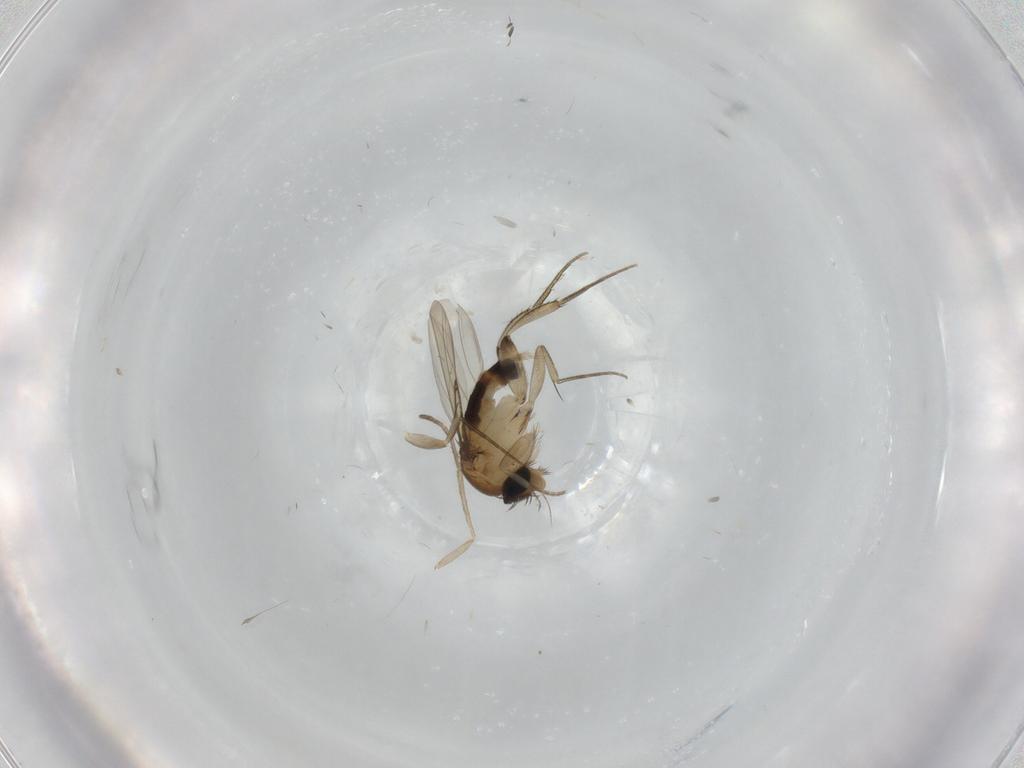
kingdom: Animalia
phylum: Arthropoda
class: Insecta
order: Diptera
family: Phoridae
